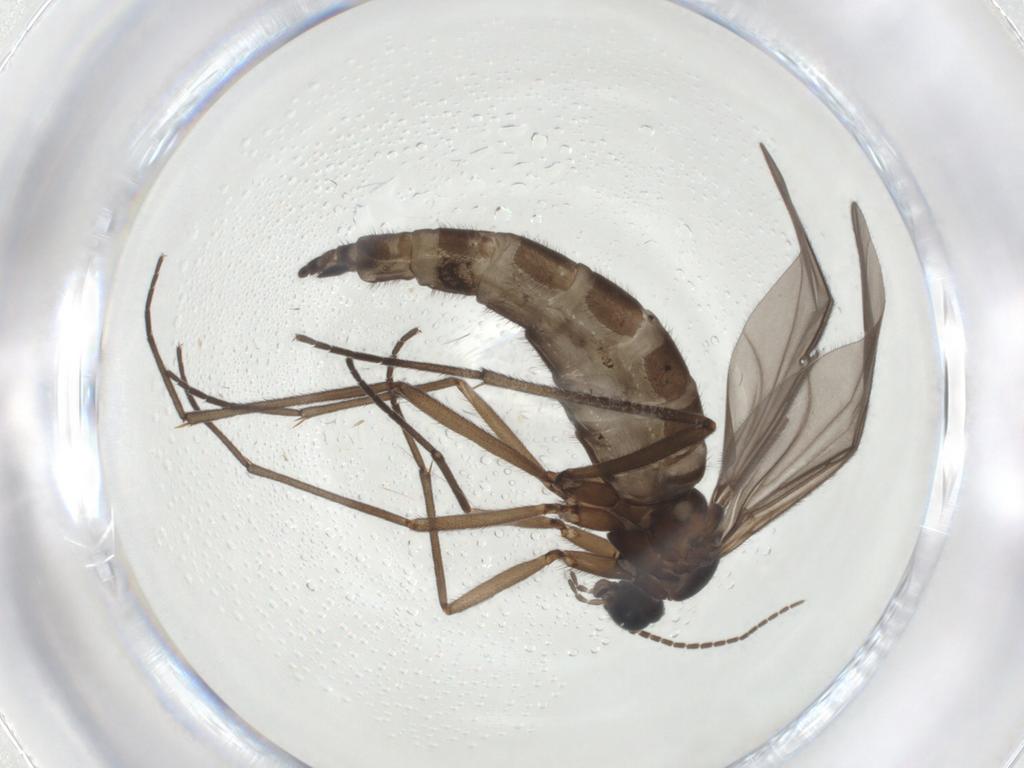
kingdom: Animalia
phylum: Arthropoda
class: Insecta
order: Diptera
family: Sciaridae
